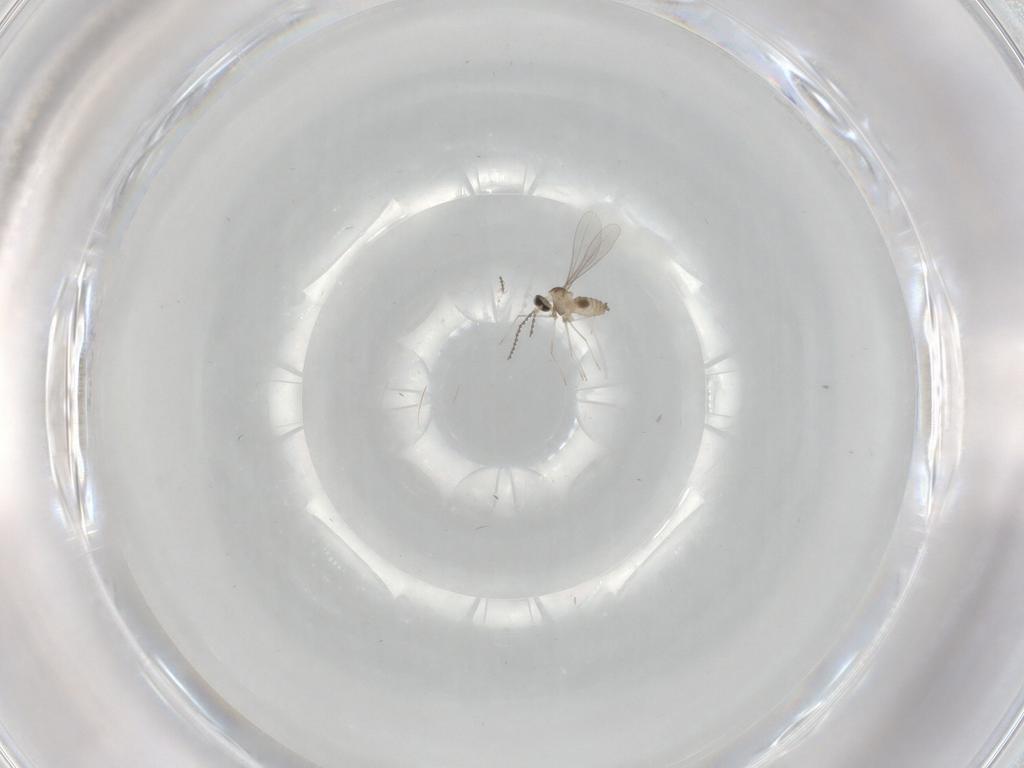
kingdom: Animalia
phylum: Arthropoda
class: Insecta
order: Diptera
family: Cecidomyiidae
